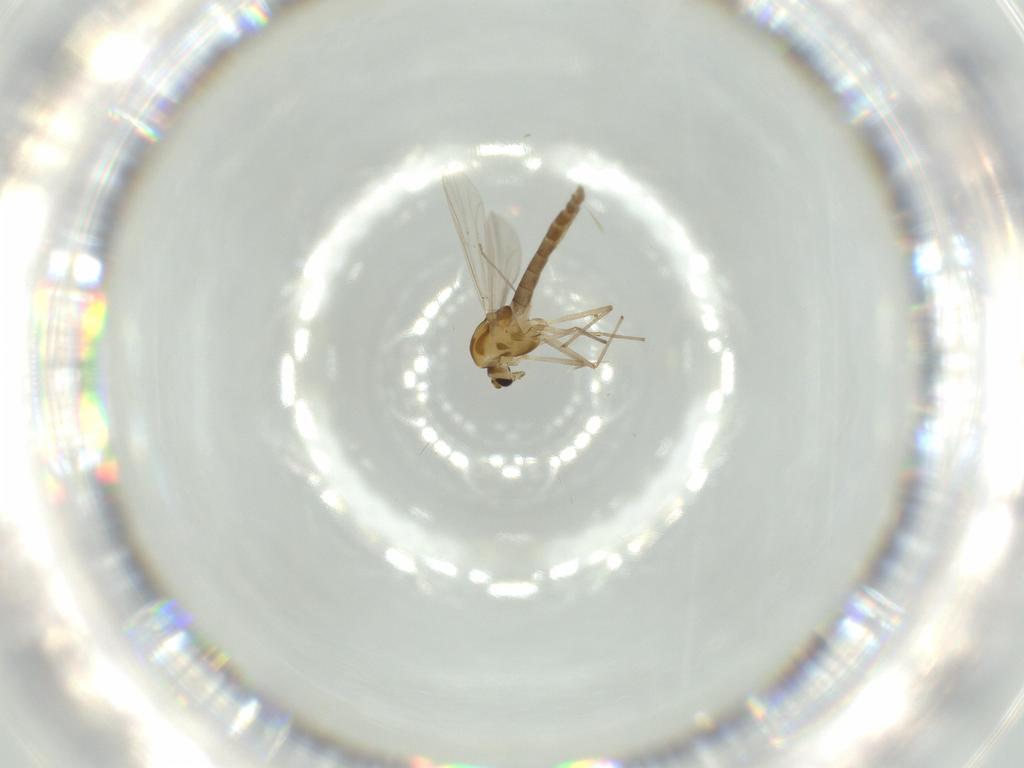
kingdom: Animalia
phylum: Arthropoda
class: Insecta
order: Diptera
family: Chironomidae
